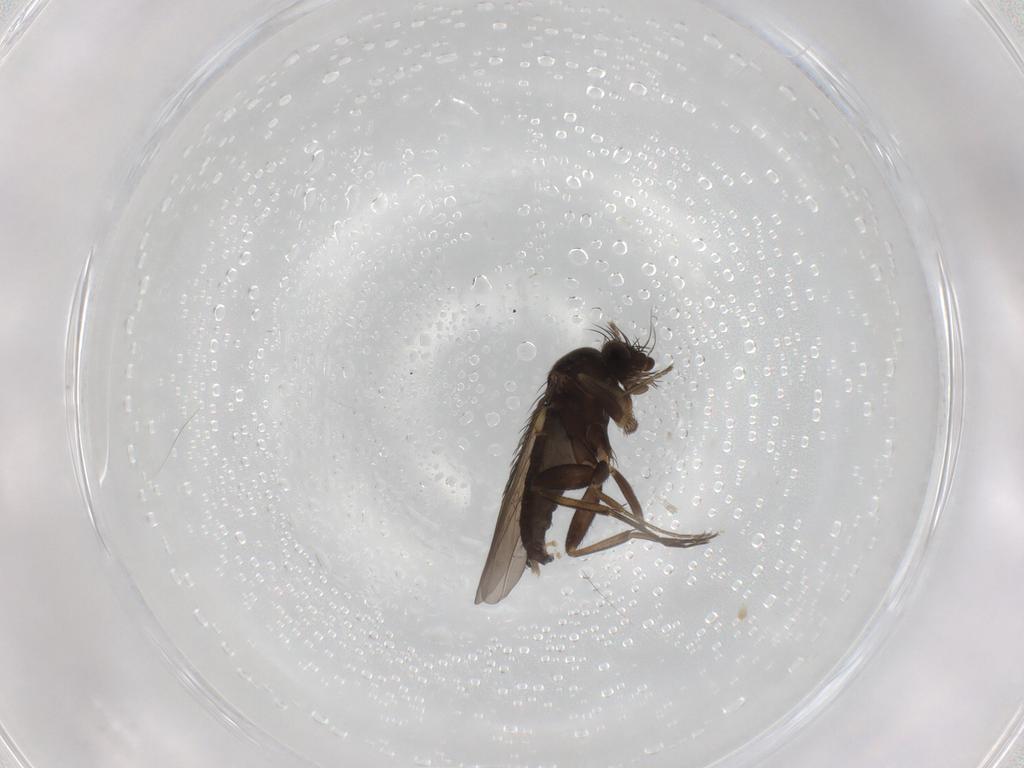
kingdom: Animalia
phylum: Arthropoda
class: Insecta
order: Diptera
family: Phoridae
